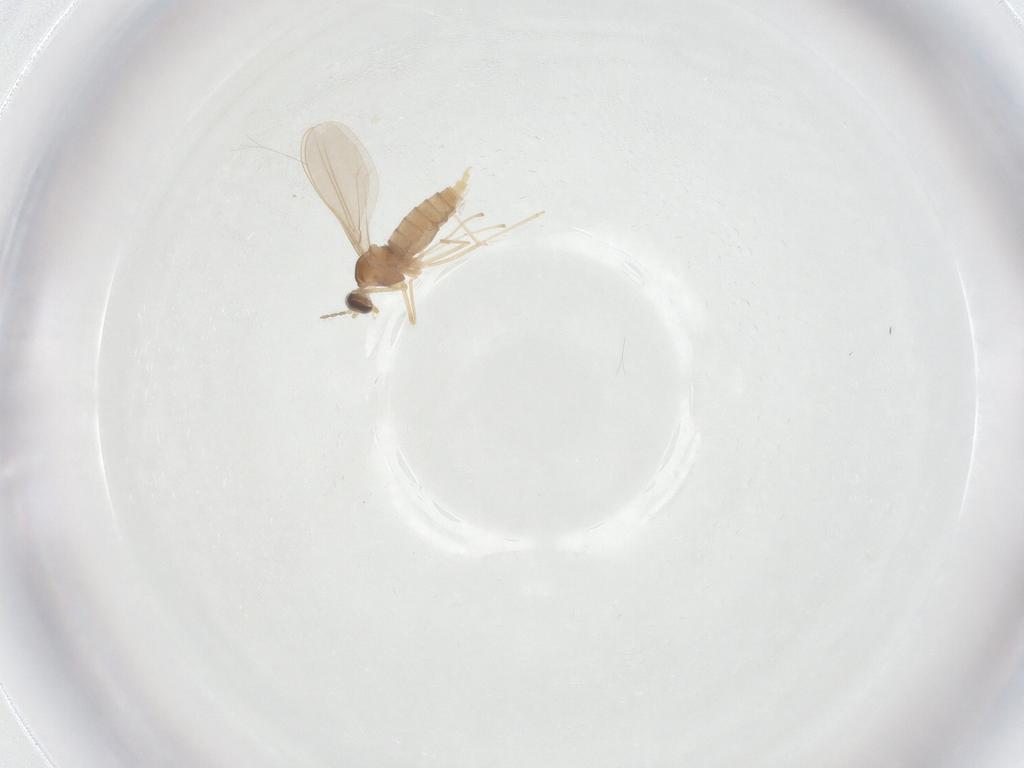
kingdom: Animalia
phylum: Arthropoda
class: Insecta
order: Diptera
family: Cecidomyiidae
